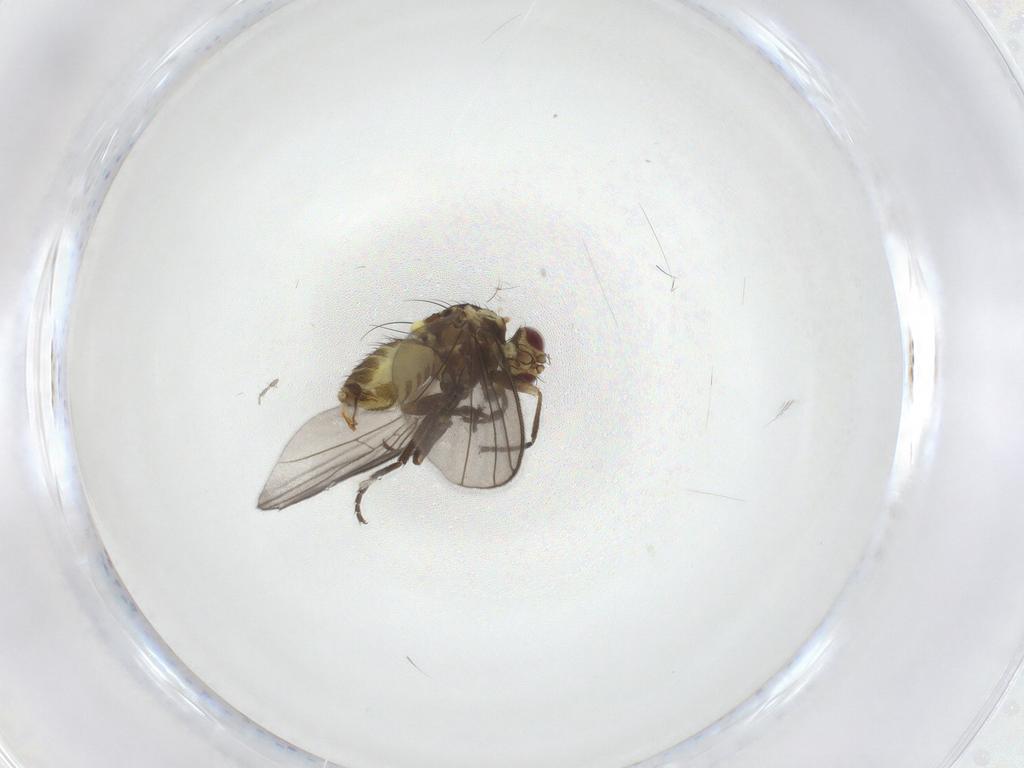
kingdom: Animalia
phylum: Arthropoda
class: Insecta
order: Diptera
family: Agromyzidae
